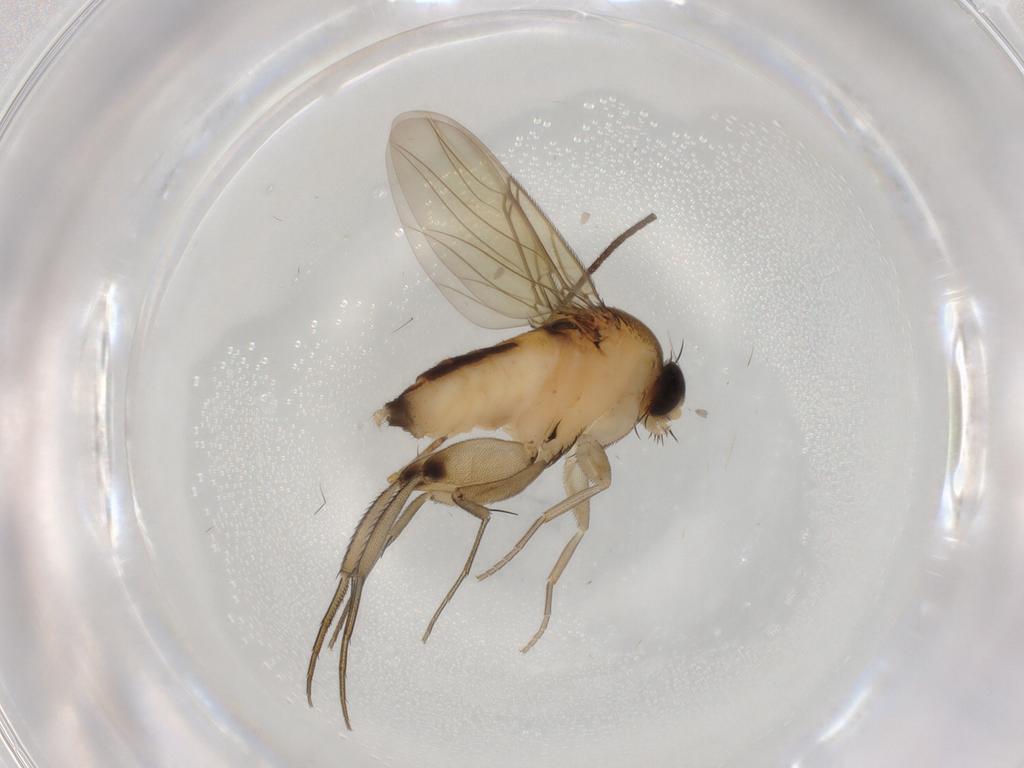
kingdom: Animalia
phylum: Arthropoda
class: Insecta
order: Diptera
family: Phoridae
